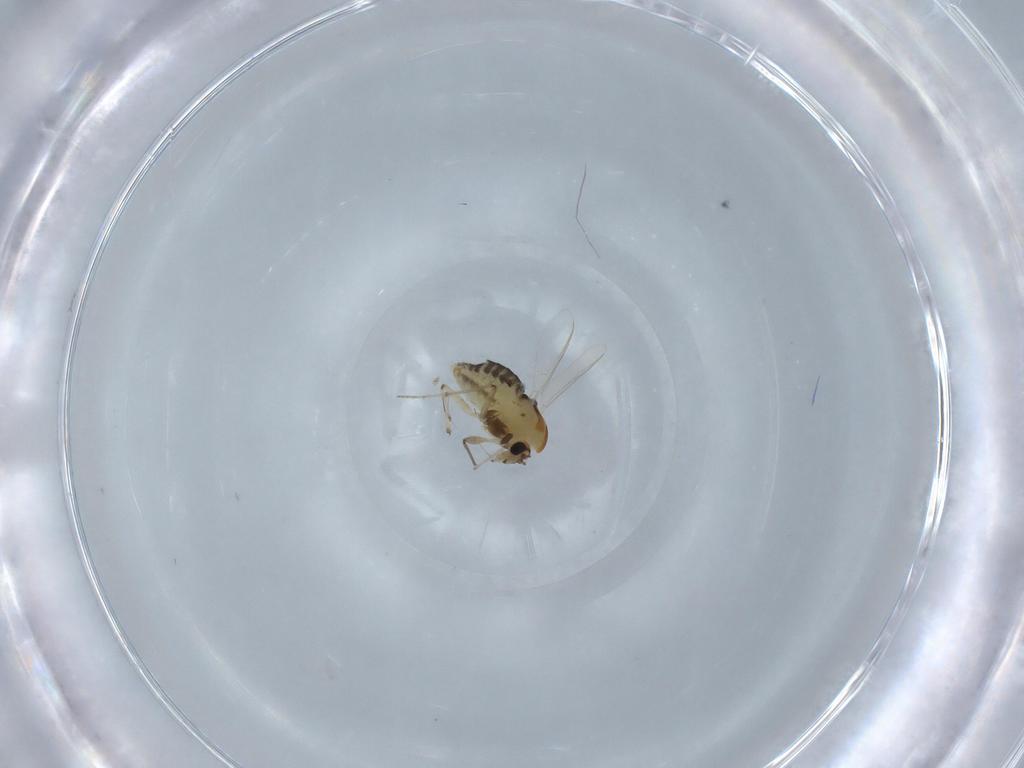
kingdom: Animalia
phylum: Arthropoda
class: Insecta
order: Diptera
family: Chironomidae
